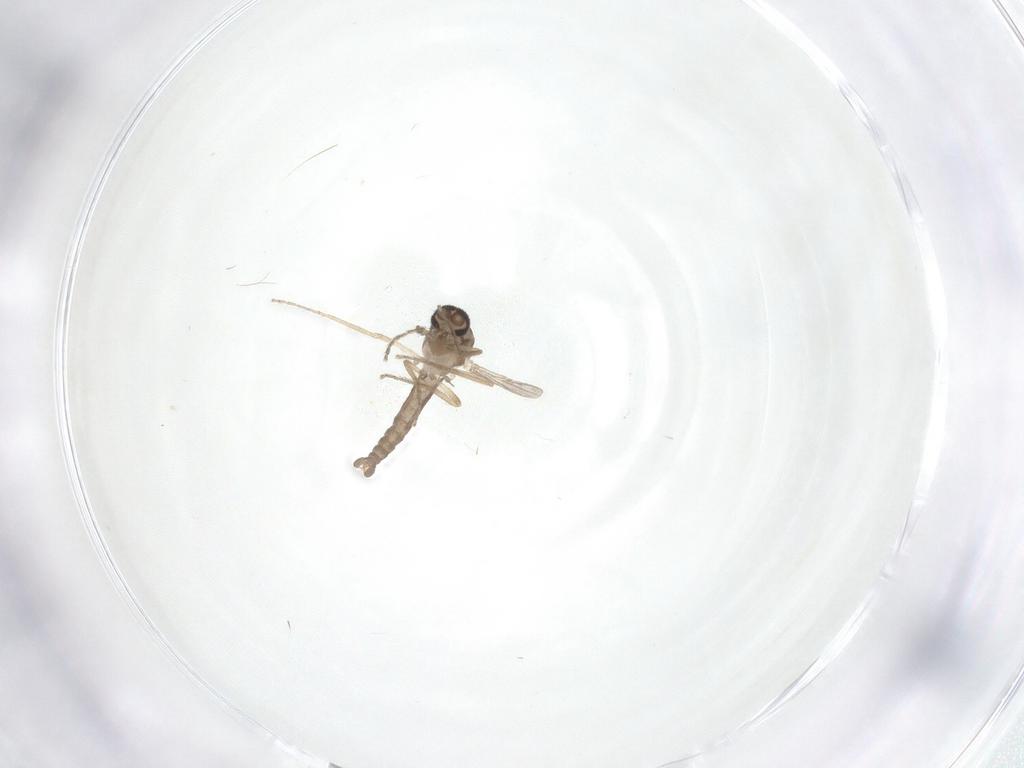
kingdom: Animalia
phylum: Arthropoda
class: Insecta
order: Diptera
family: Ceratopogonidae
